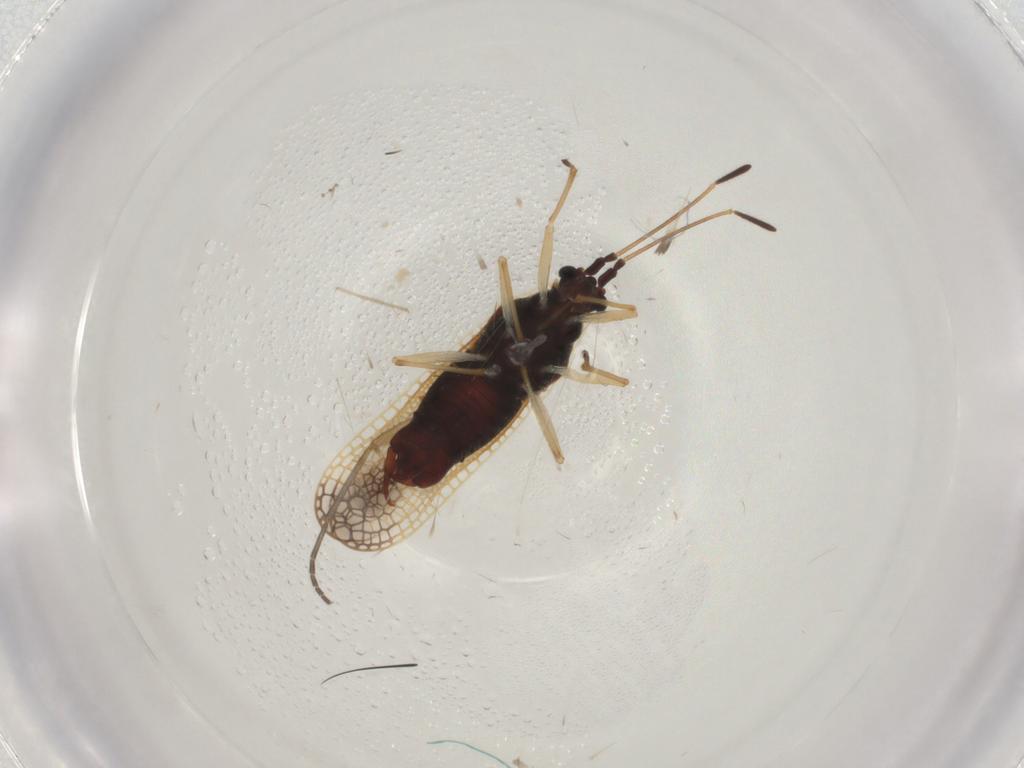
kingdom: Animalia
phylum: Arthropoda
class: Insecta
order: Hemiptera
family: Tingidae
